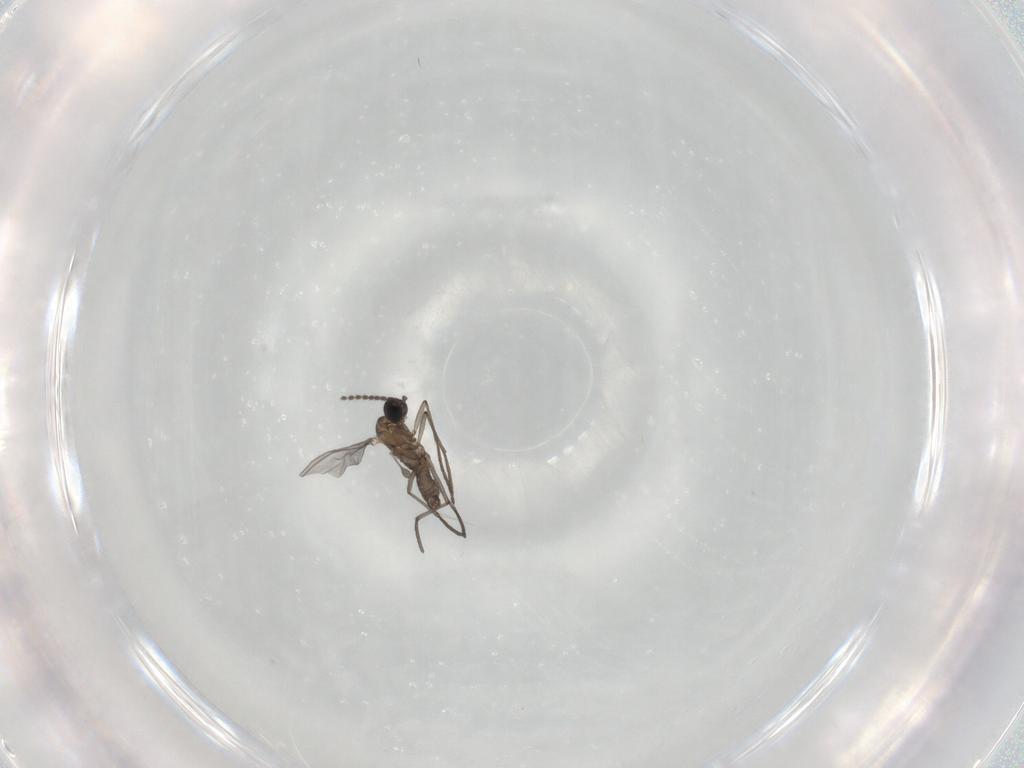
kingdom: Animalia
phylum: Arthropoda
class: Insecta
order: Diptera
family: Sciaridae
